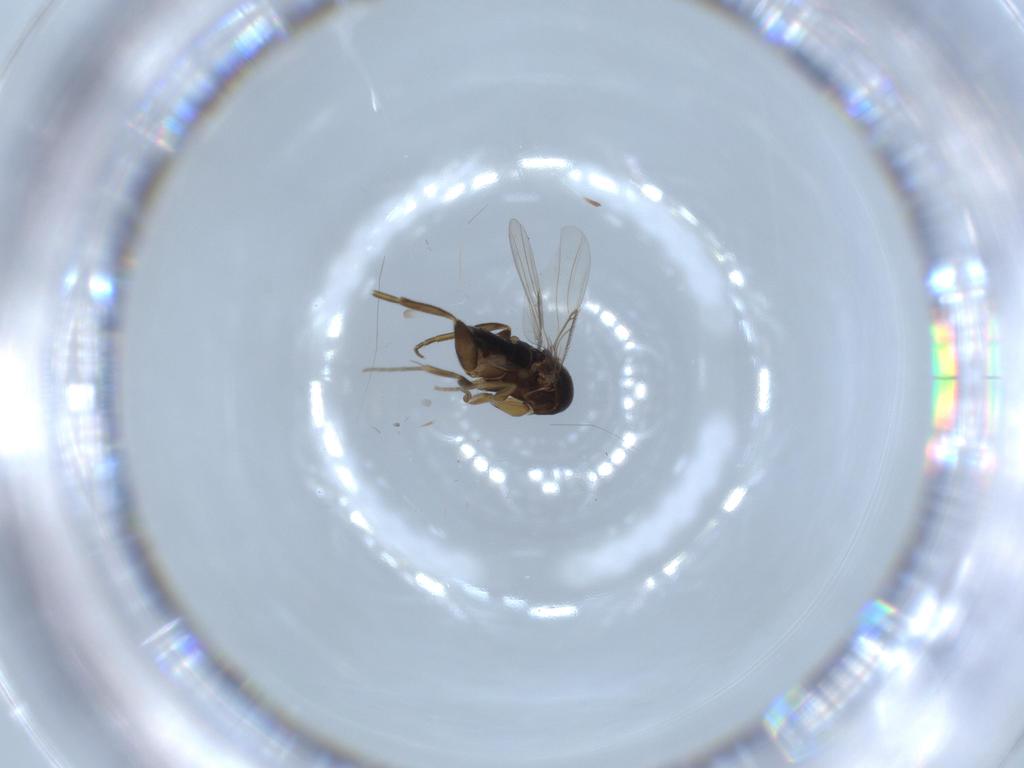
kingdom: Animalia
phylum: Arthropoda
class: Insecta
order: Diptera
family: Phoridae
